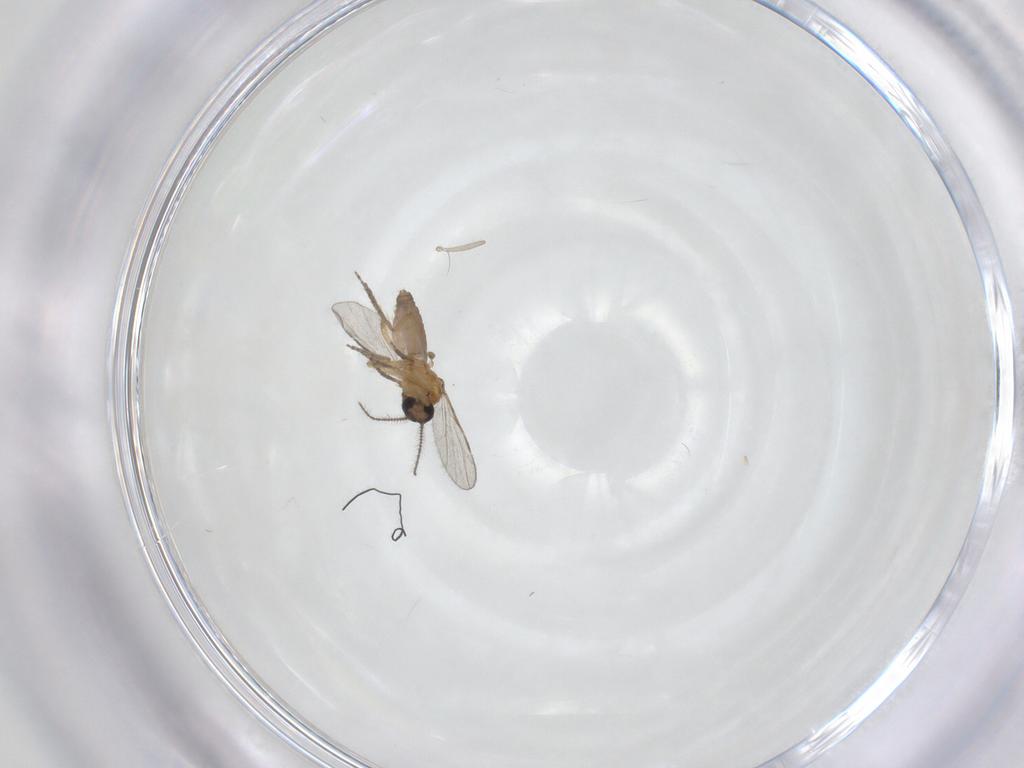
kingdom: Animalia
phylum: Arthropoda
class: Insecta
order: Diptera
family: Ceratopogonidae
